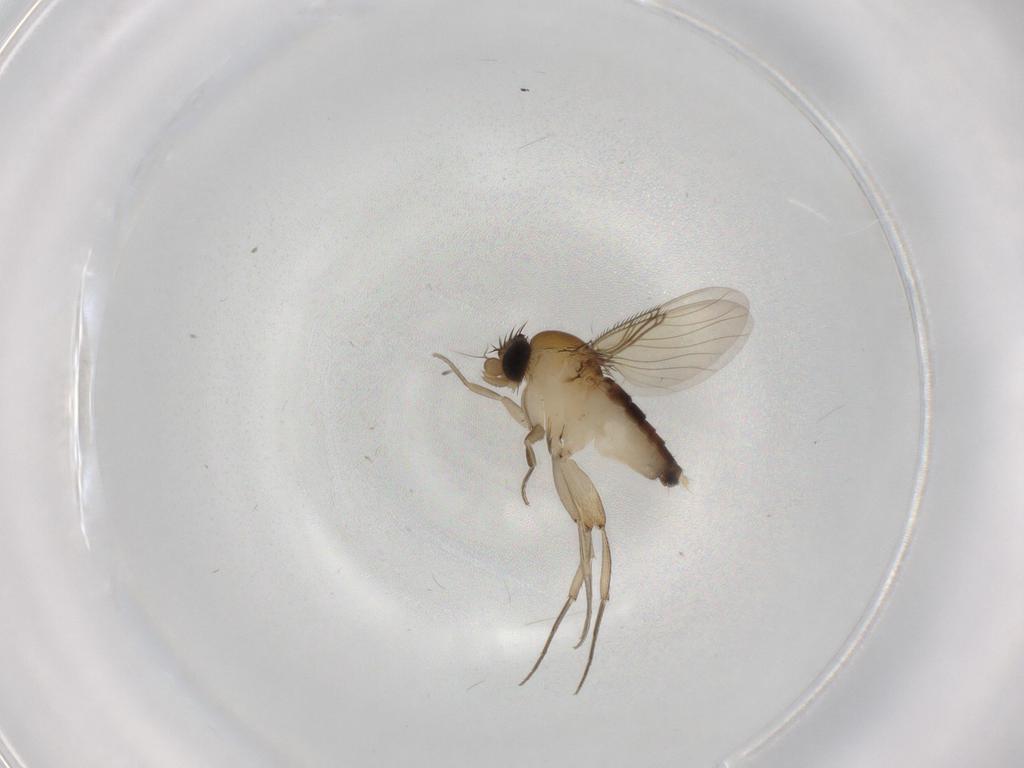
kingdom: Animalia
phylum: Arthropoda
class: Insecta
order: Diptera
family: Phoridae
